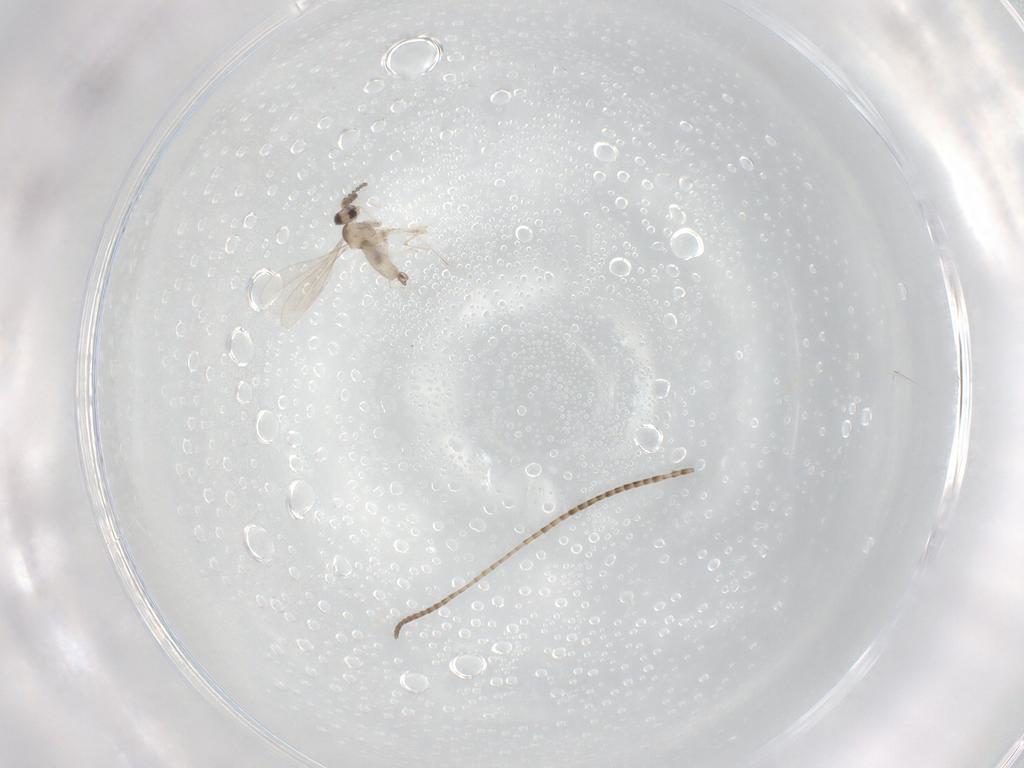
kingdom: Animalia
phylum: Arthropoda
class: Insecta
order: Diptera
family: Chironomidae
